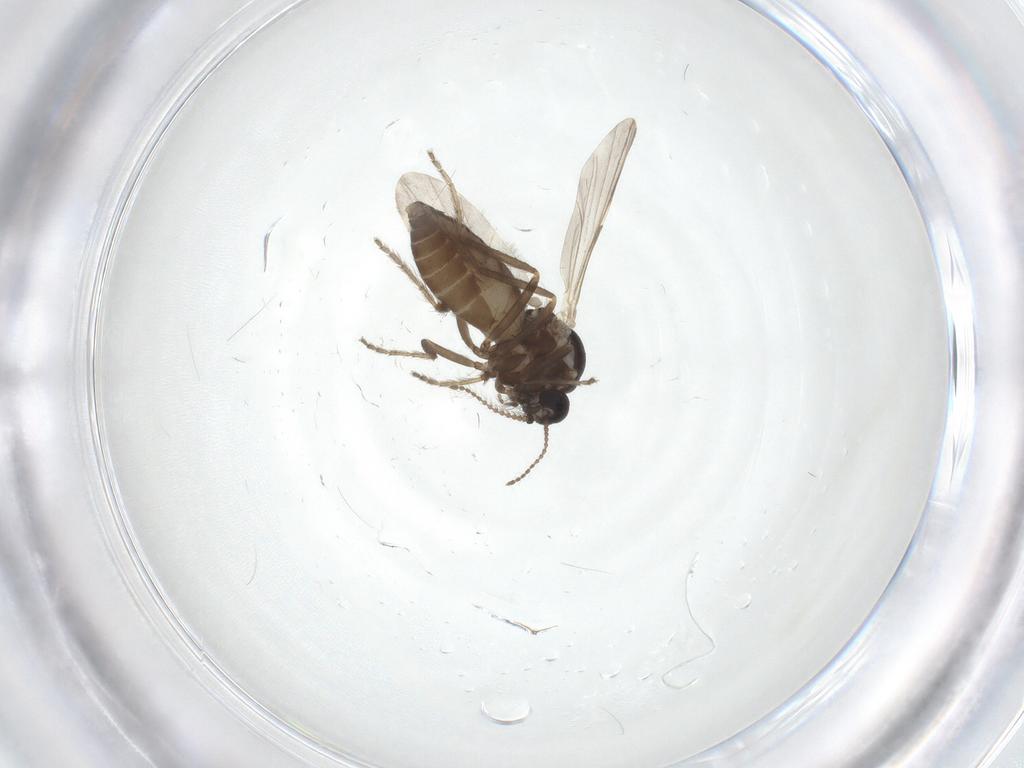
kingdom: Animalia
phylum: Arthropoda
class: Insecta
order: Diptera
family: Ceratopogonidae
